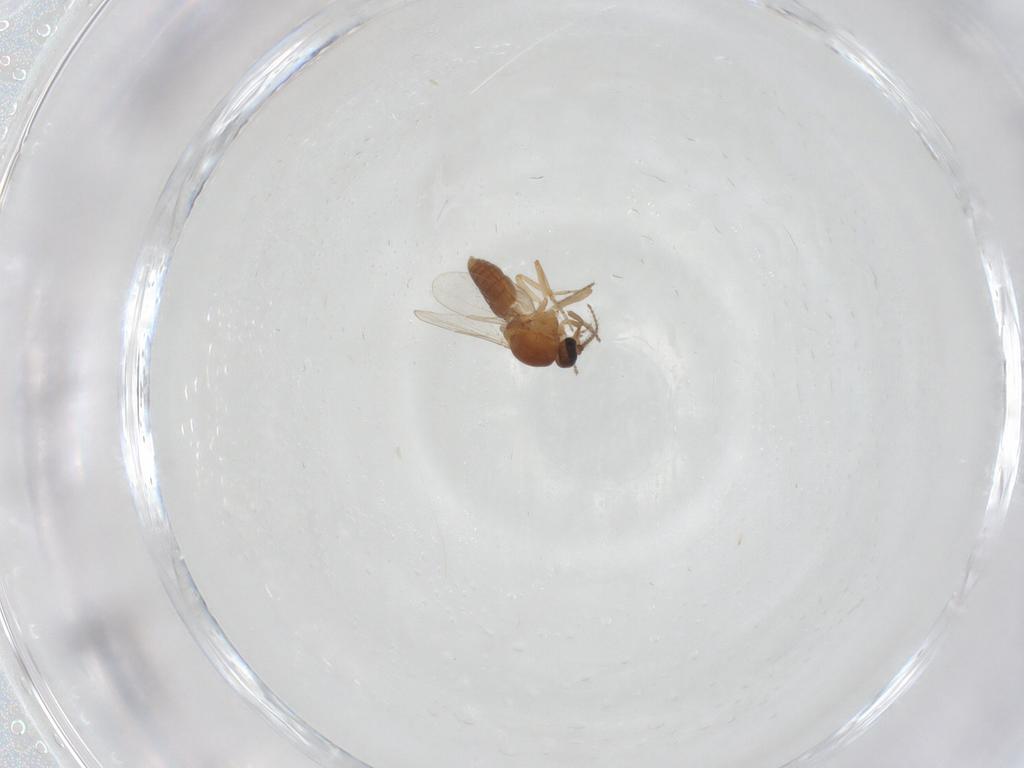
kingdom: Animalia
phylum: Arthropoda
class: Insecta
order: Diptera
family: Ceratopogonidae
